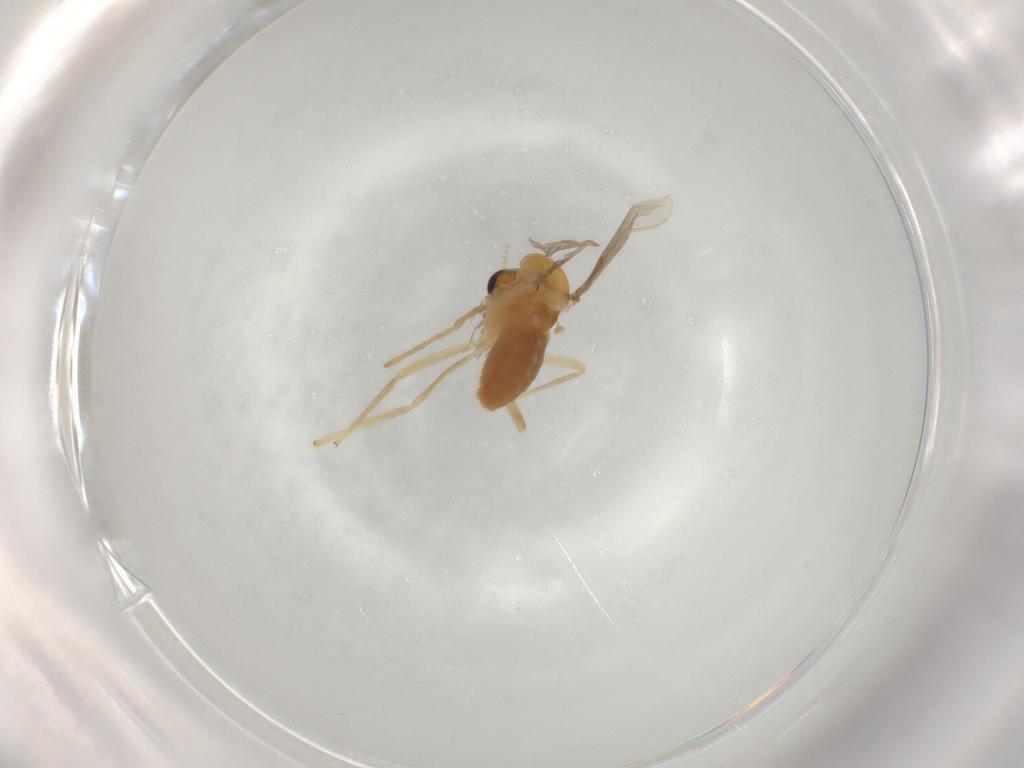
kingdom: Animalia
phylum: Arthropoda
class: Insecta
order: Diptera
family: Chironomidae
